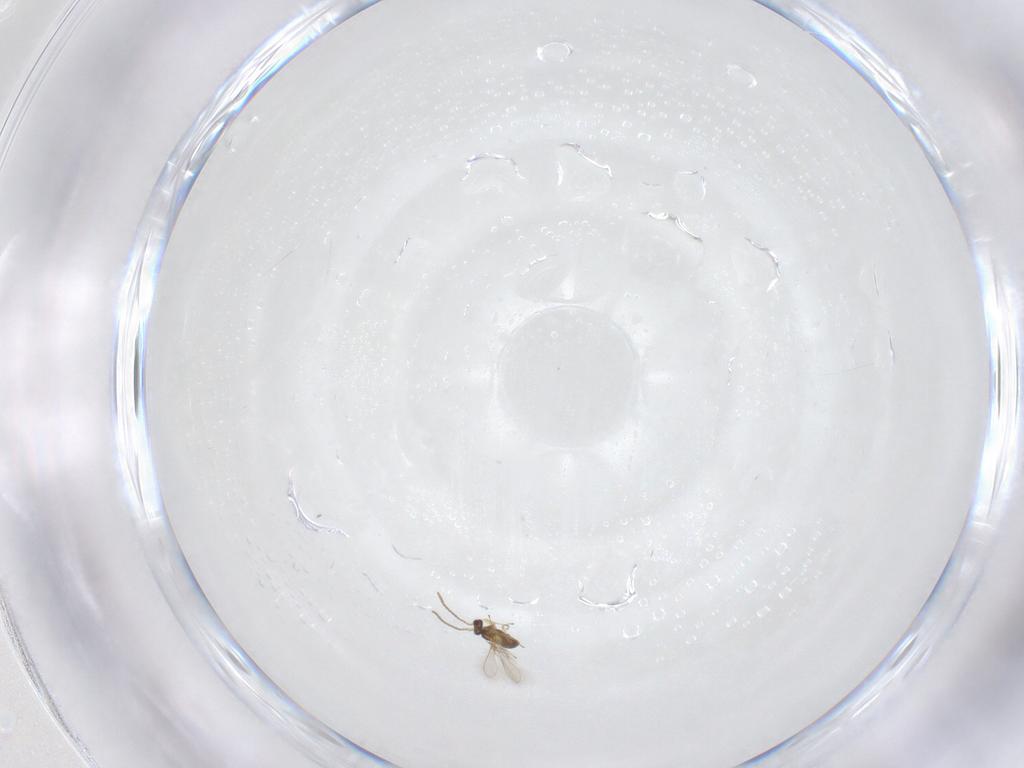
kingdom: Animalia
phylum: Arthropoda
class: Insecta
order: Hymenoptera
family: Mymaridae
